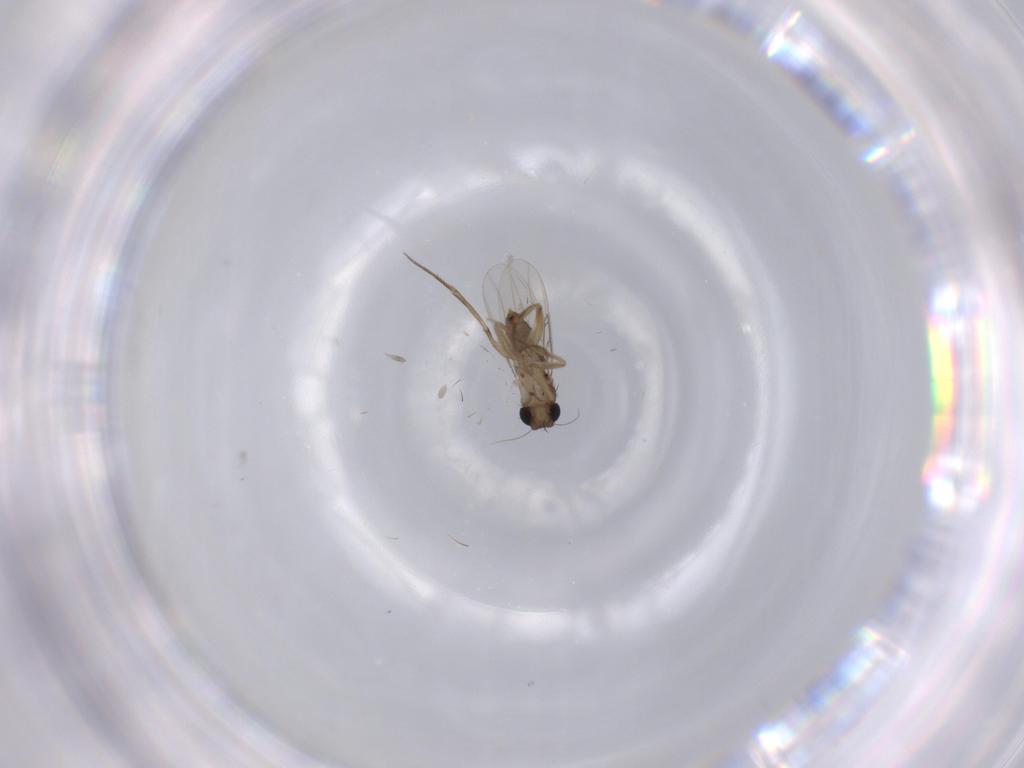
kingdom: Animalia
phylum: Arthropoda
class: Insecta
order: Diptera
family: Phoridae
